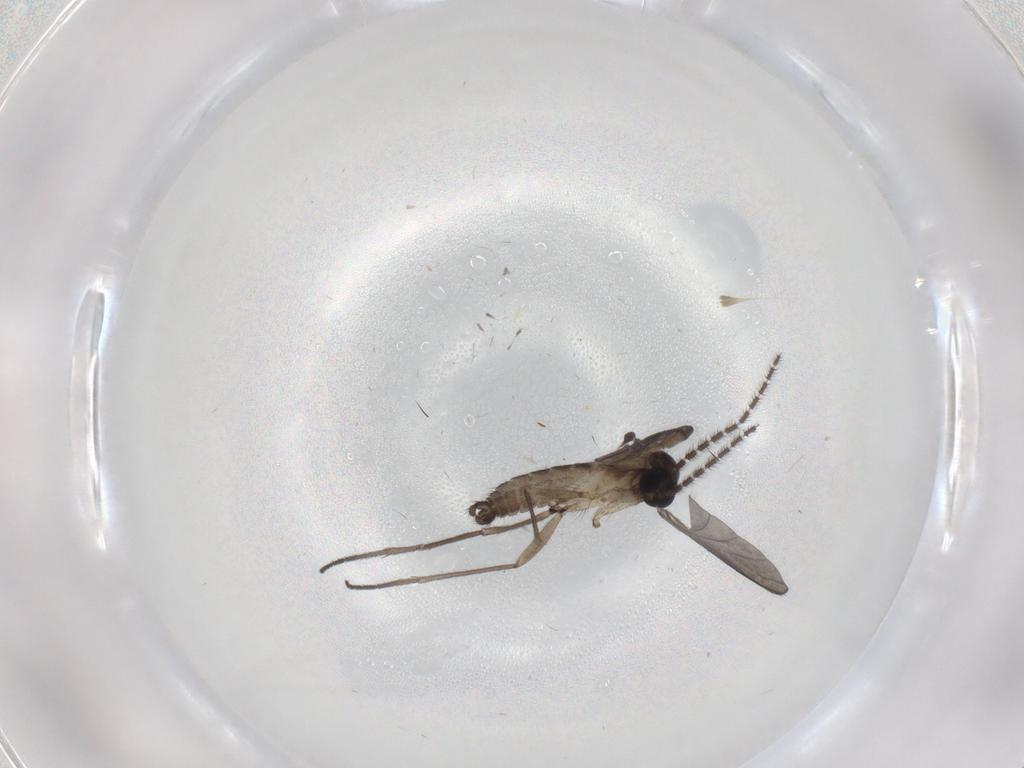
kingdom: Animalia
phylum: Arthropoda
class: Insecta
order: Diptera
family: Sciaridae
